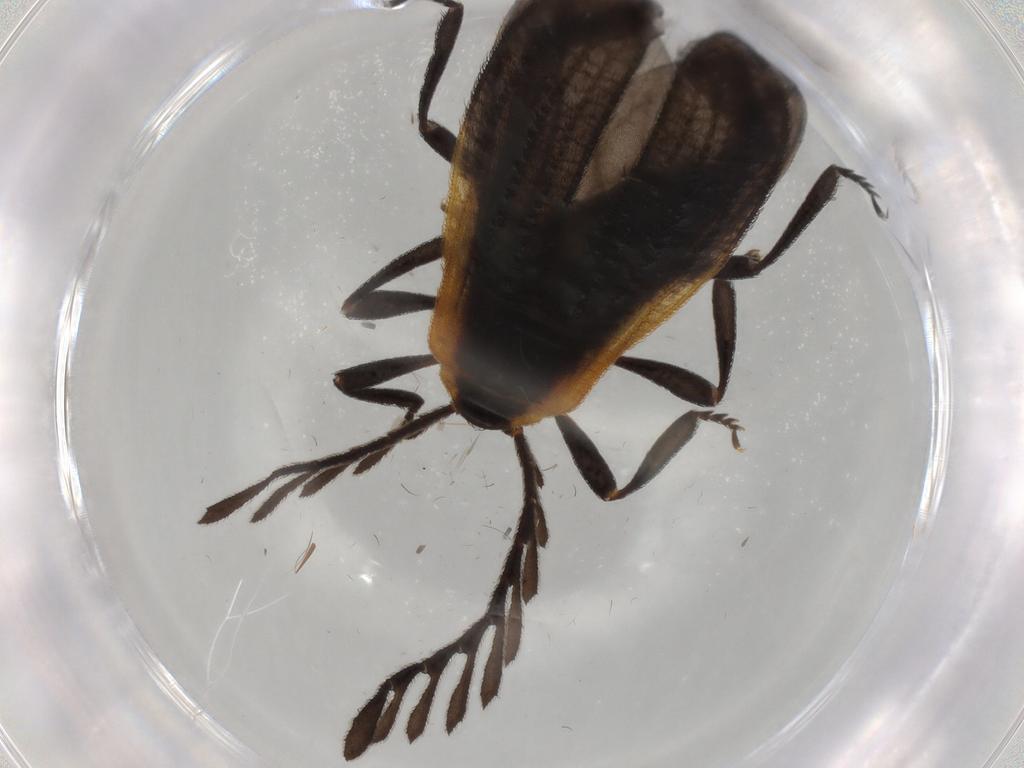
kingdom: Animalia
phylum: Arthropoda
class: Insecta
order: Coleoptera
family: Lycidae
